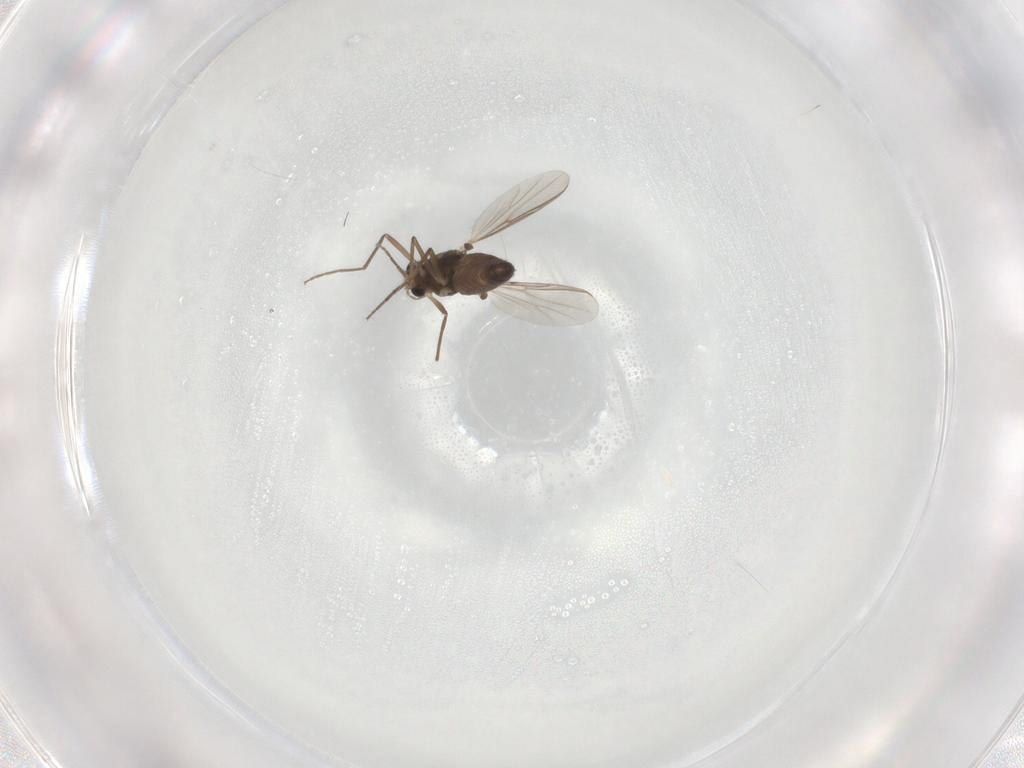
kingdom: Animalia
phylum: Arthropoda
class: Insecta
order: Diptera
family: Chironomidae
